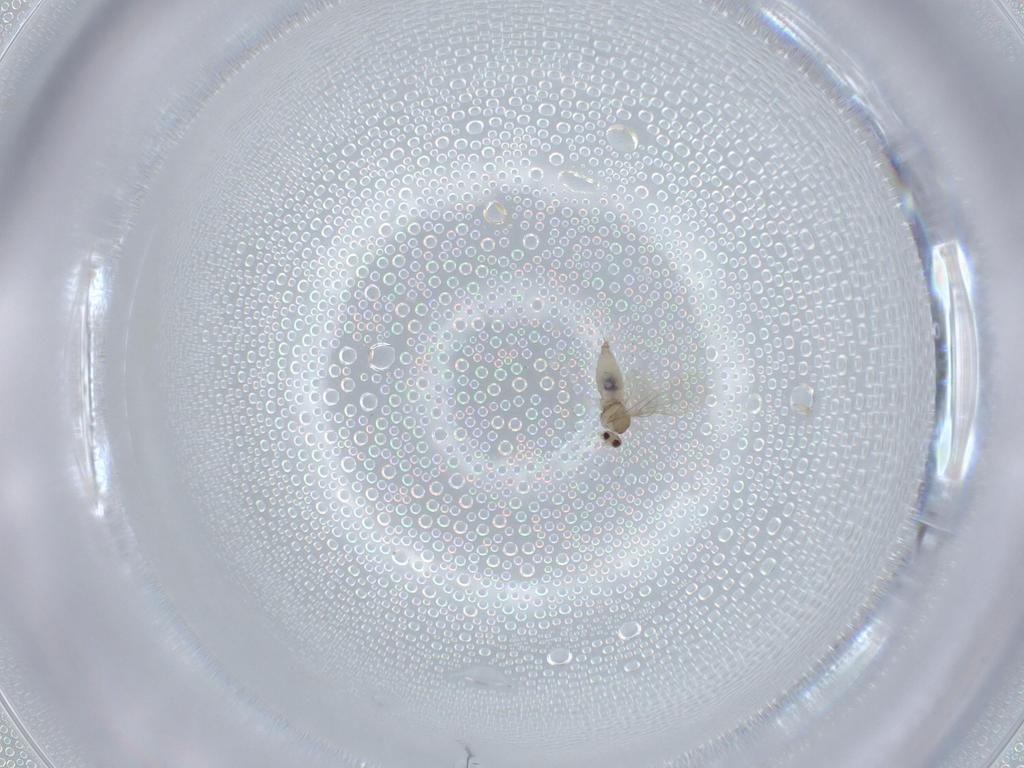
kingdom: Animalia
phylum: Arthropoda
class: Insecta
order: Diptera
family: Cecidomyiidae
